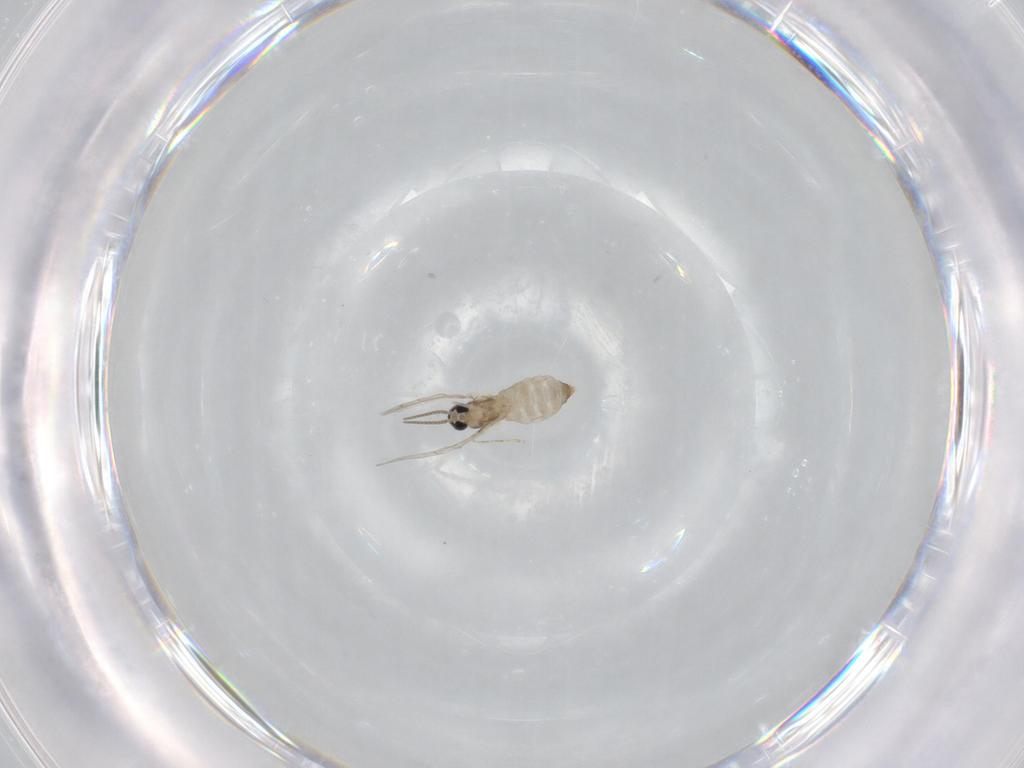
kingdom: Animalia
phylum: Arthropoda
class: Insecta
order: Diptera
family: Cecidomyiidae
